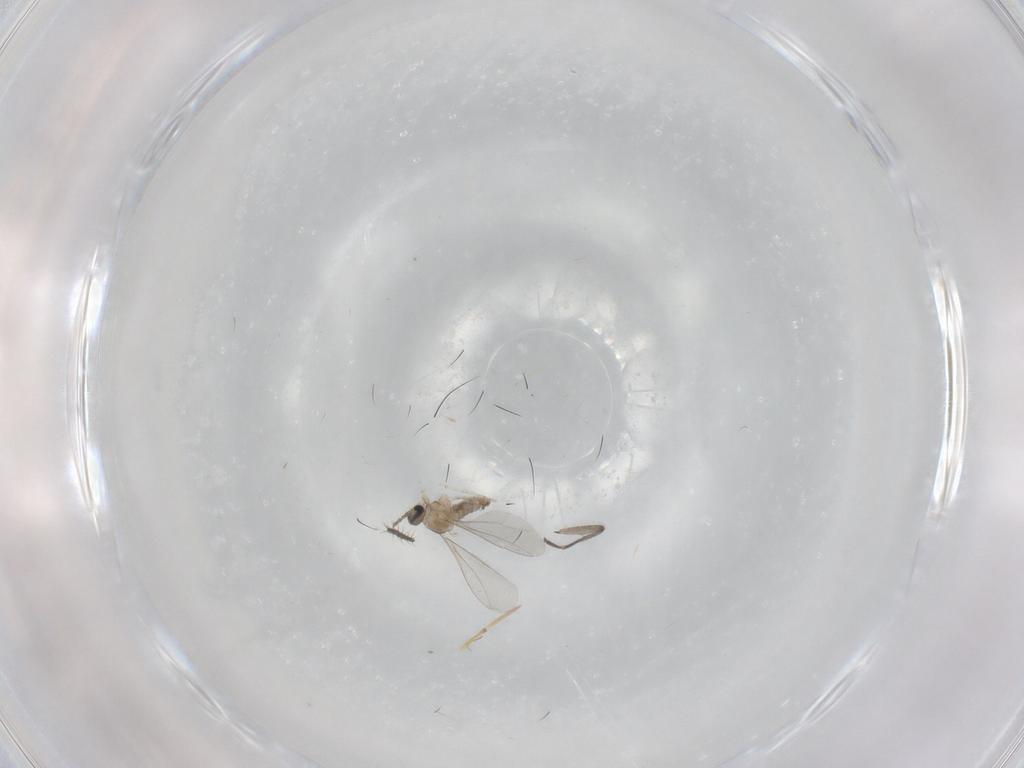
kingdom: Animalia
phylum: Arthropoda
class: Insecta
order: Diptera
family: Cecidomyiidae
